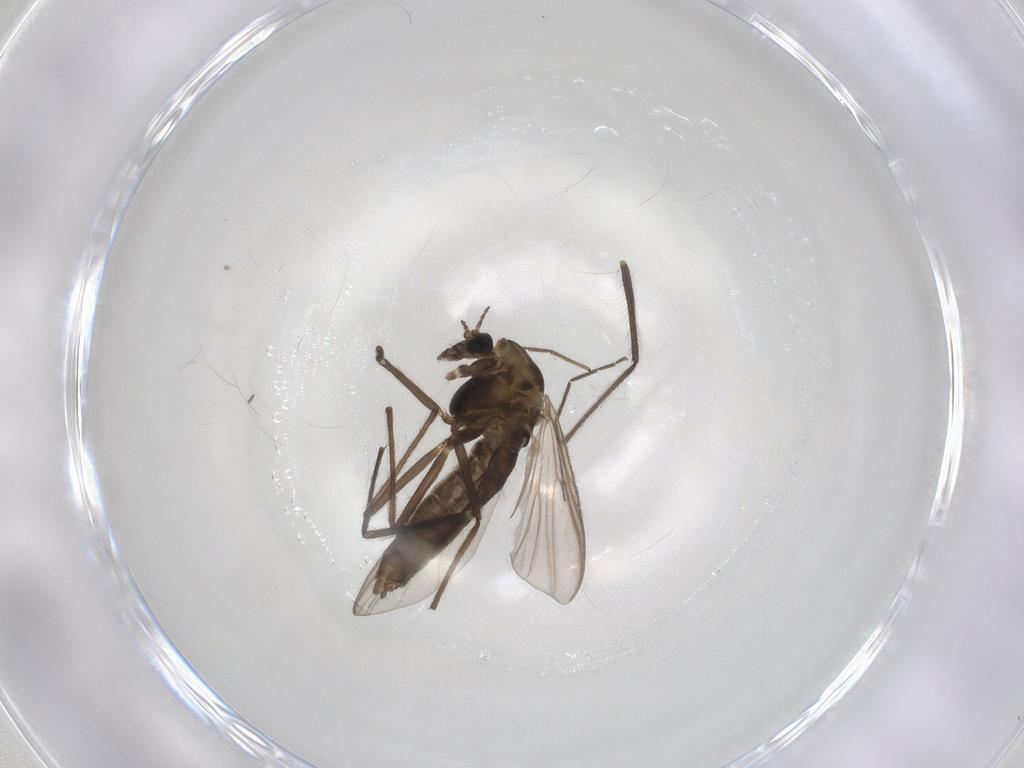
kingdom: Animalia
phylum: Arthropoda
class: Insecta
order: Diptera
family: Chironomidae
